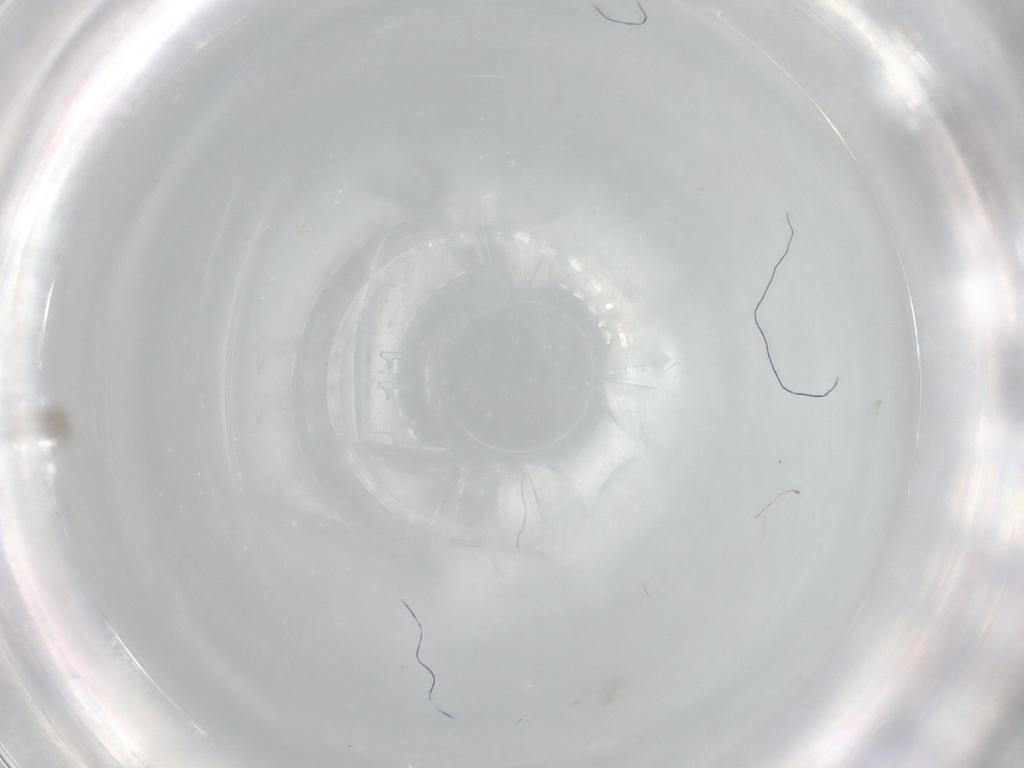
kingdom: Animalia
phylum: Arthropoda
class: Insecta
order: Diptera
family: Cecidomyiidae
